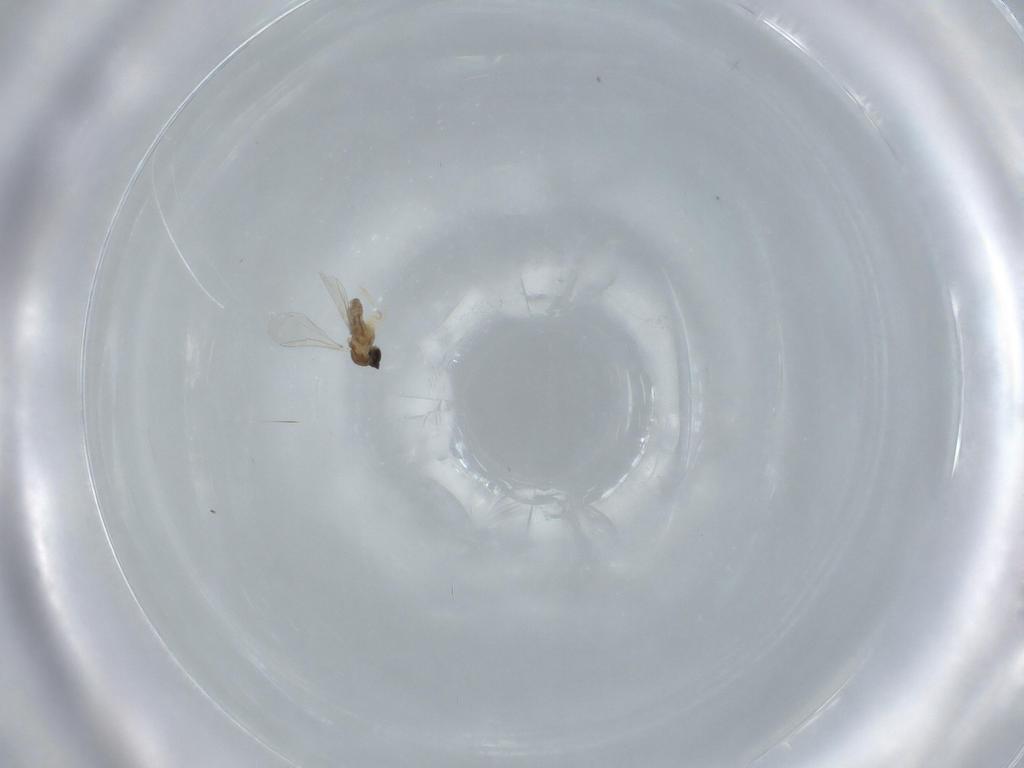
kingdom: Animalia
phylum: Arthropoda
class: Insecta
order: Diptera
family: Cecidomyiidae
